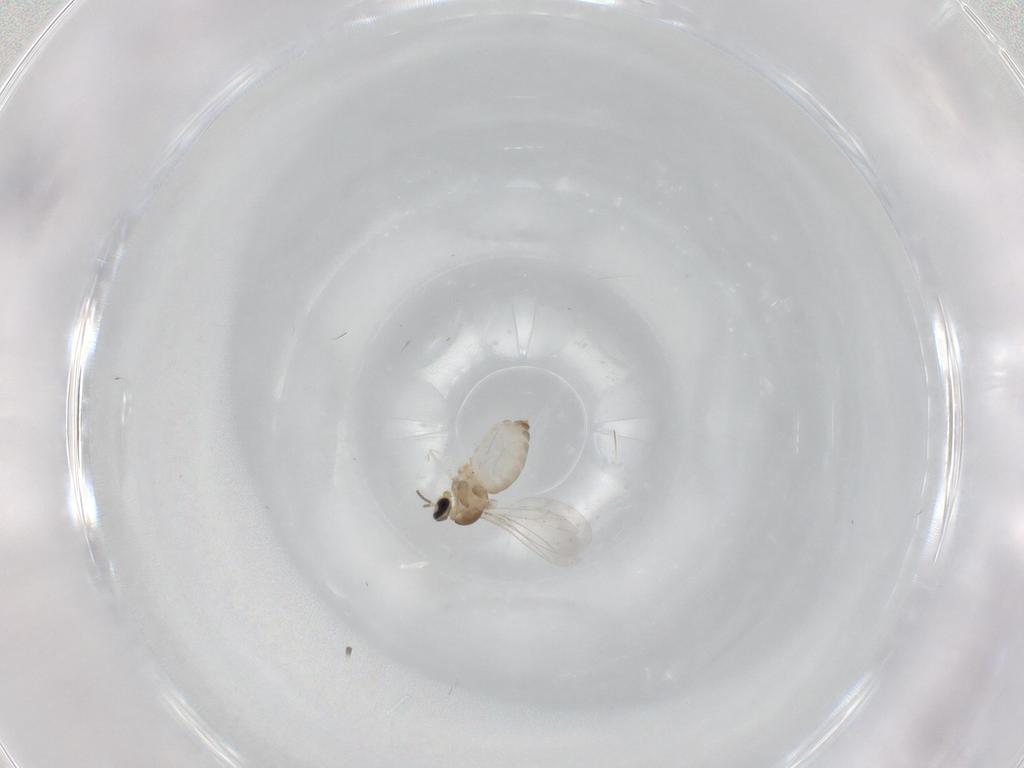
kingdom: Animalia
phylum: Arthropoda
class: Insecta
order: Diptera
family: Cecidomyiidae
